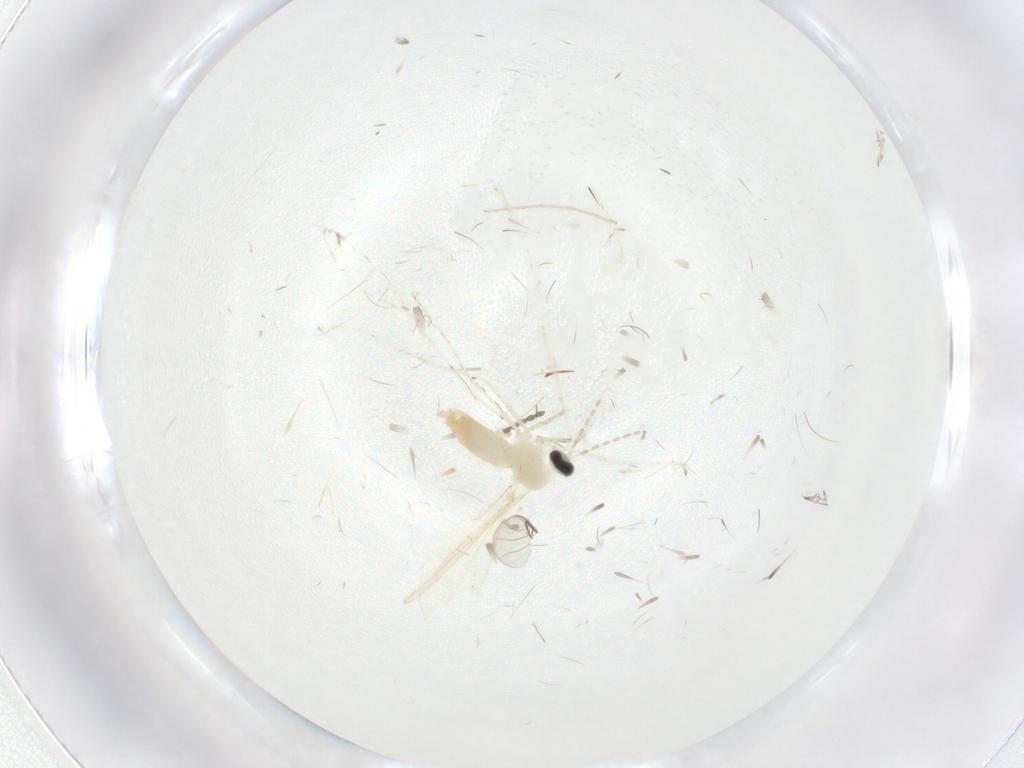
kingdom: Animalia
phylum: Arthropoda
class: Insecta
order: Diptera
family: Cecidomyiidae
